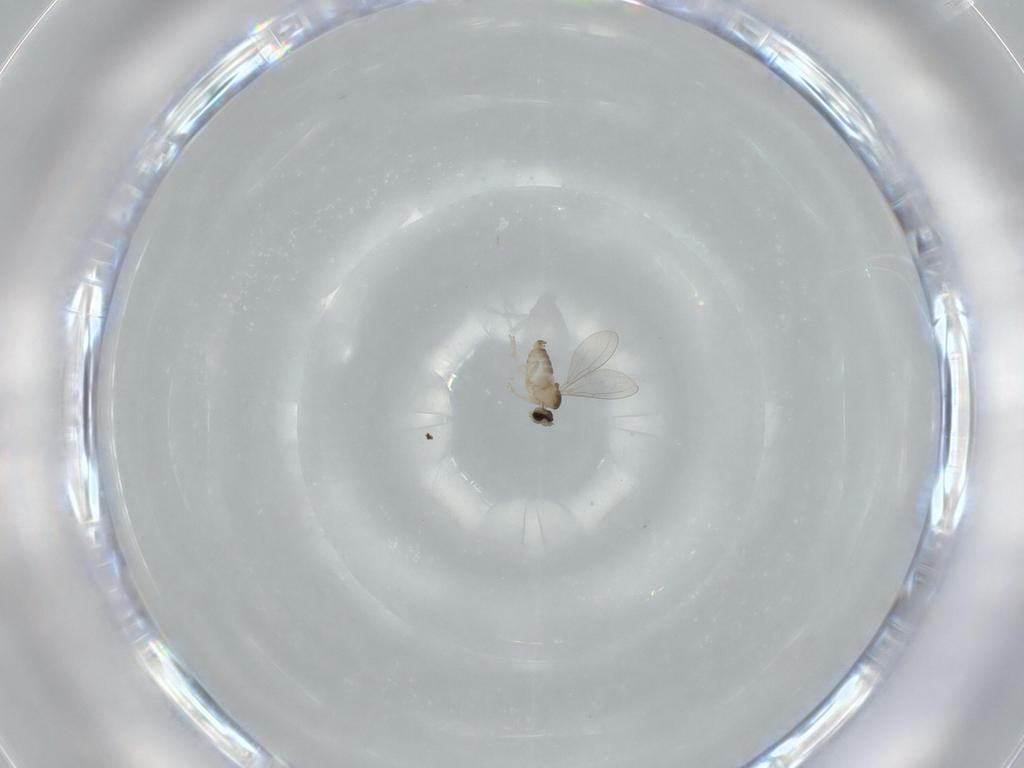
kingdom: Animalia
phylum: Arthropoda
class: Insecta
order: Diptera
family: Cecidomyiidae
